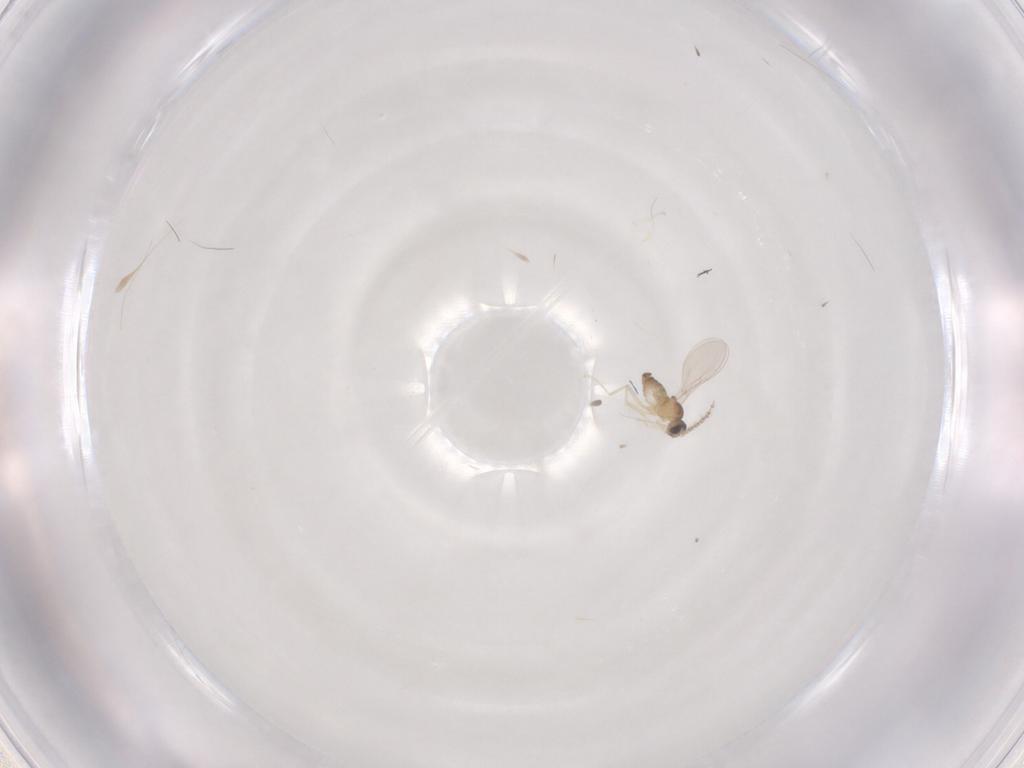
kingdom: Animalia
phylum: Arthropoda
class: Insecta
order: Diptera
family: Cecidomyiidae
